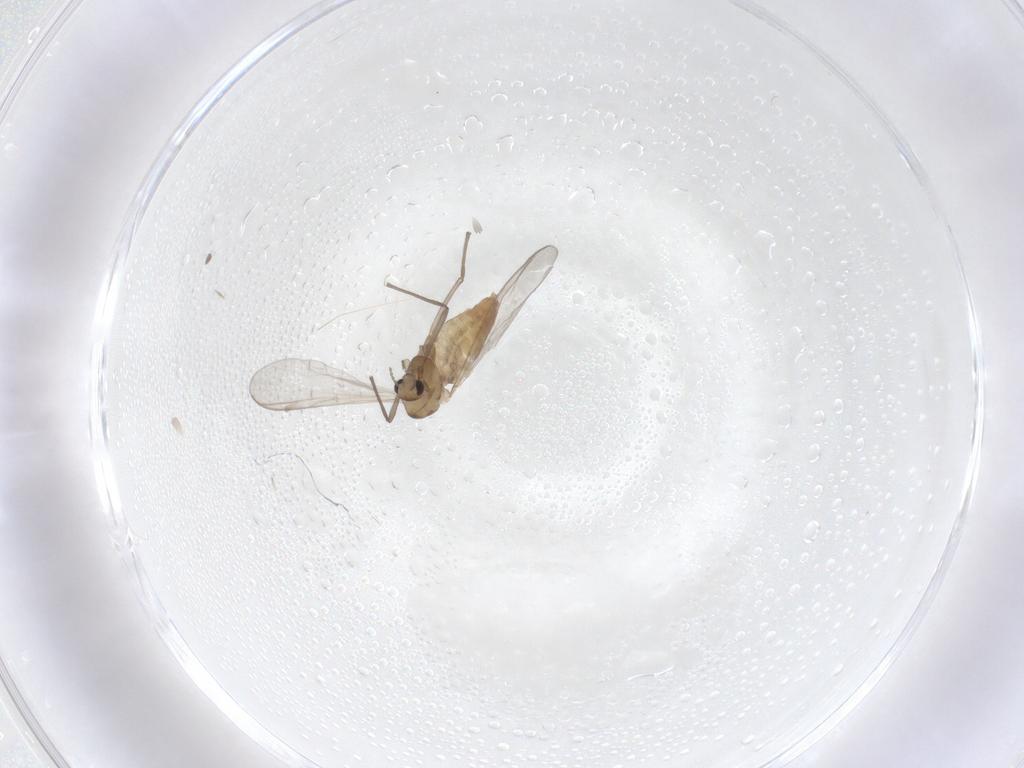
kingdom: Animalia
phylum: Arthropoda
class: Insecta
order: Diptera
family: Chironomidae
